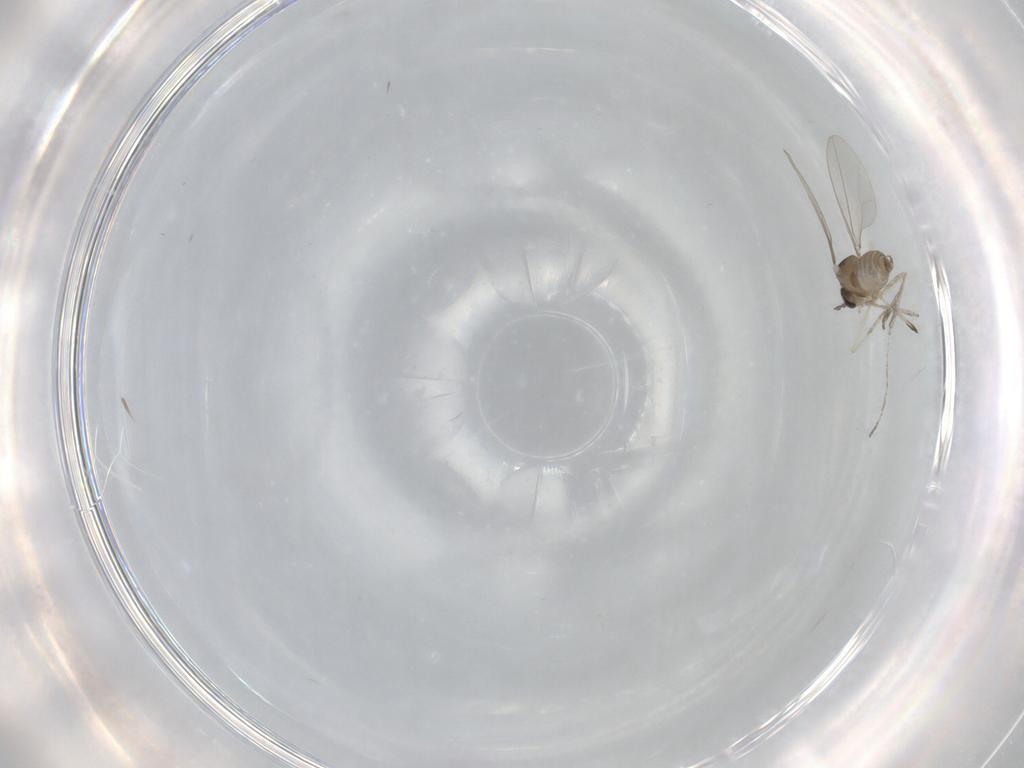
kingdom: Animalia
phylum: Arthropoda
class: Insecta
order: Diptera
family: Cecidomyiidae
